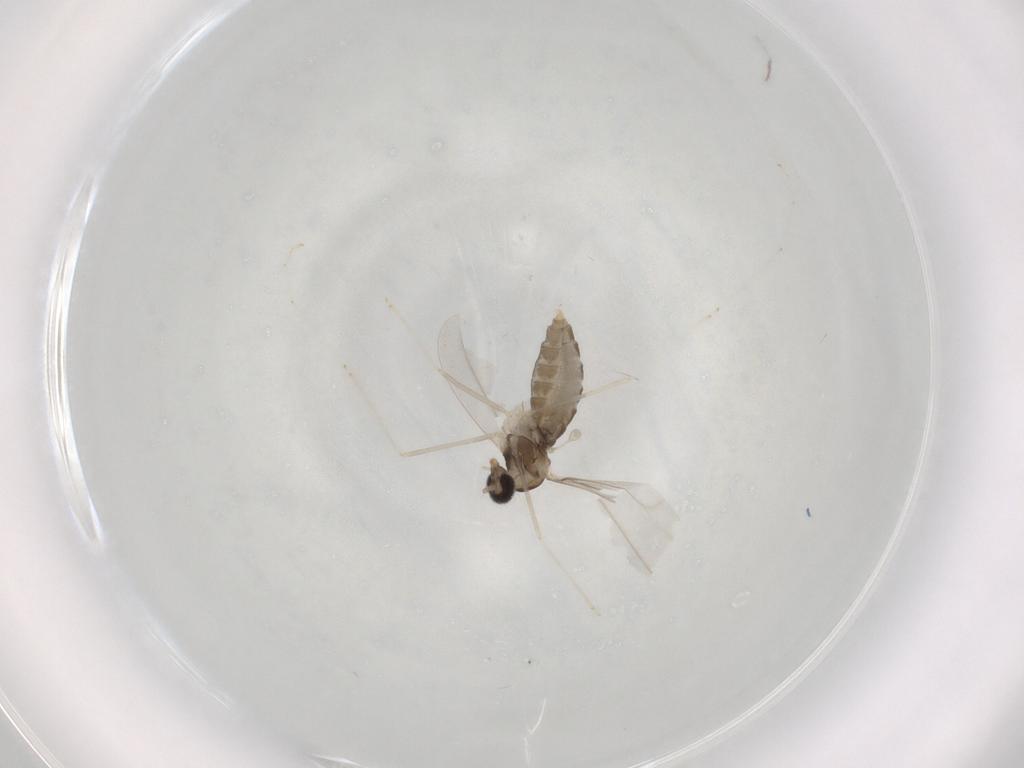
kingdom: Animalia
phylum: Arthropoda
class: Insecta
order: Diptera
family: Cecidomyiidae
